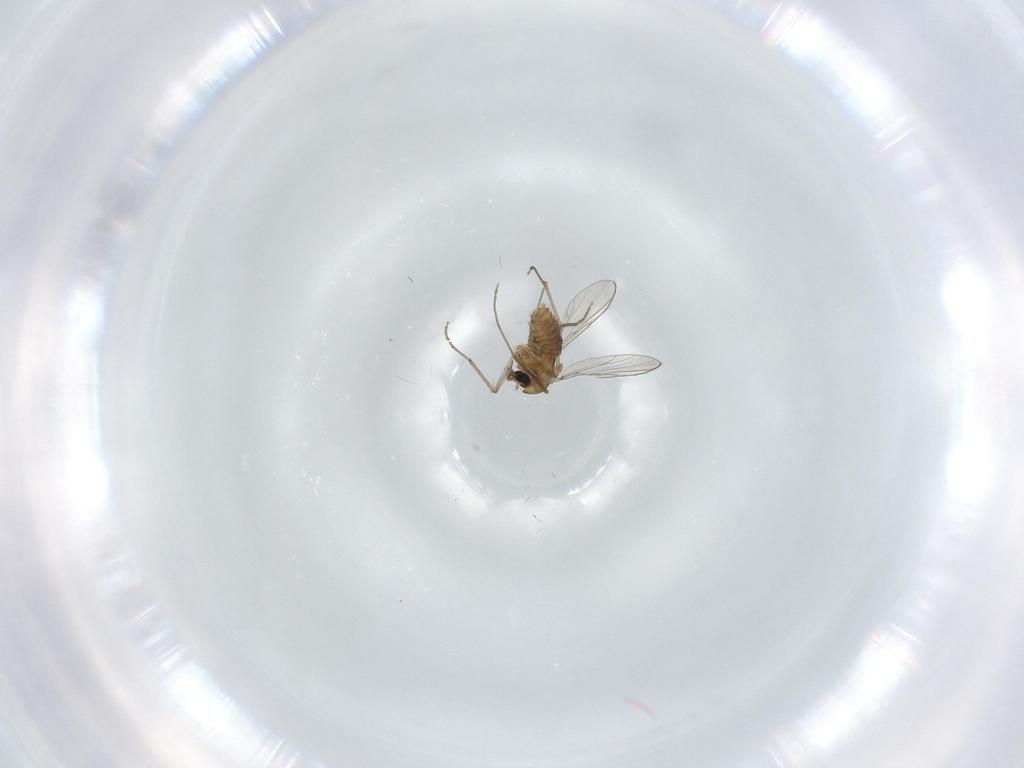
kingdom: Animalia
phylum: Arthropoda
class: Insecta
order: Diptera
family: Chironomidae
